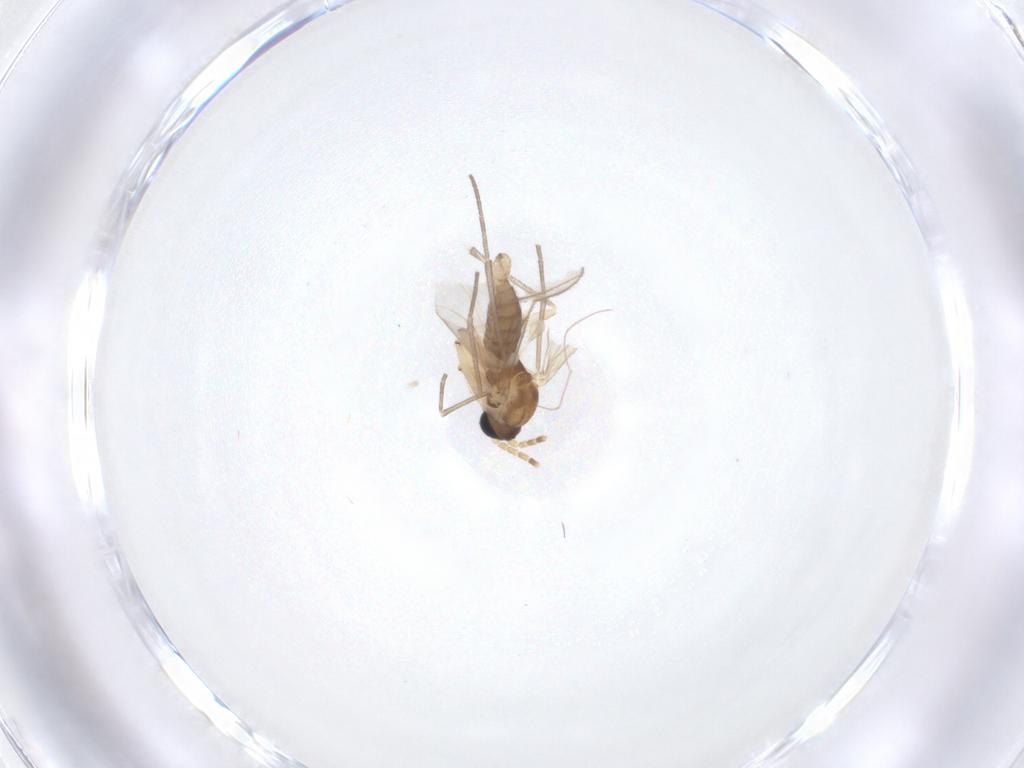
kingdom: Animalia
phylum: Arthropoda
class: Insecta
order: Diptera
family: Sciaridae
